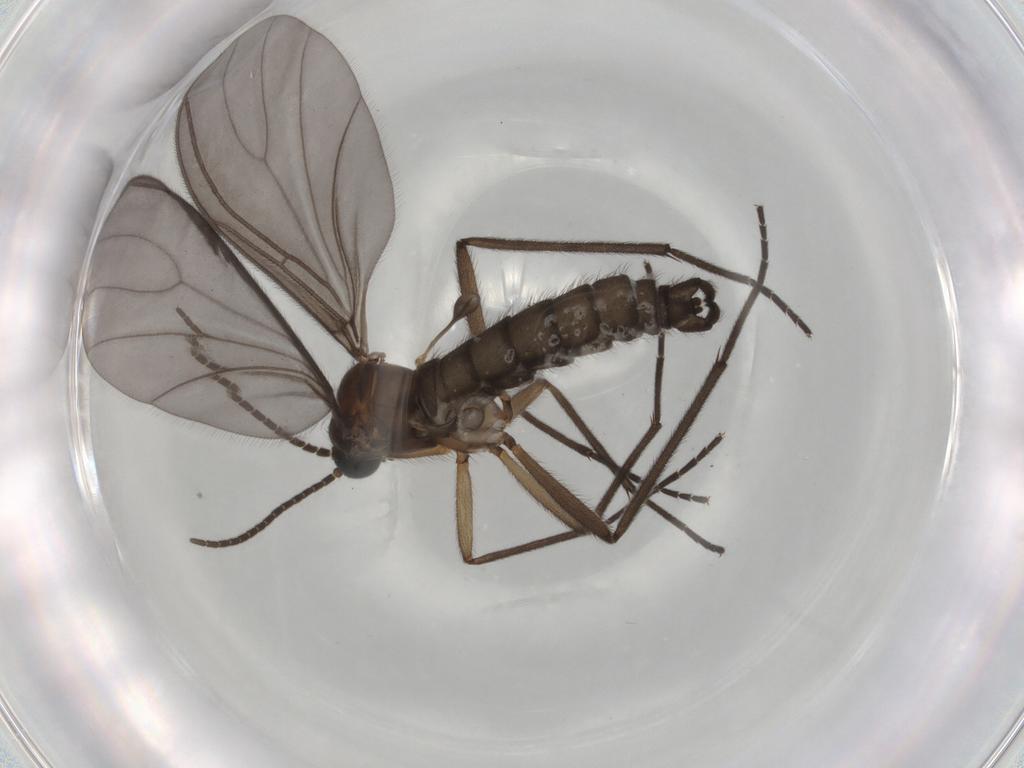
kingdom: Animalia
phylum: Arthropoda
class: Insecta
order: Diptera
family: Sciaridae
